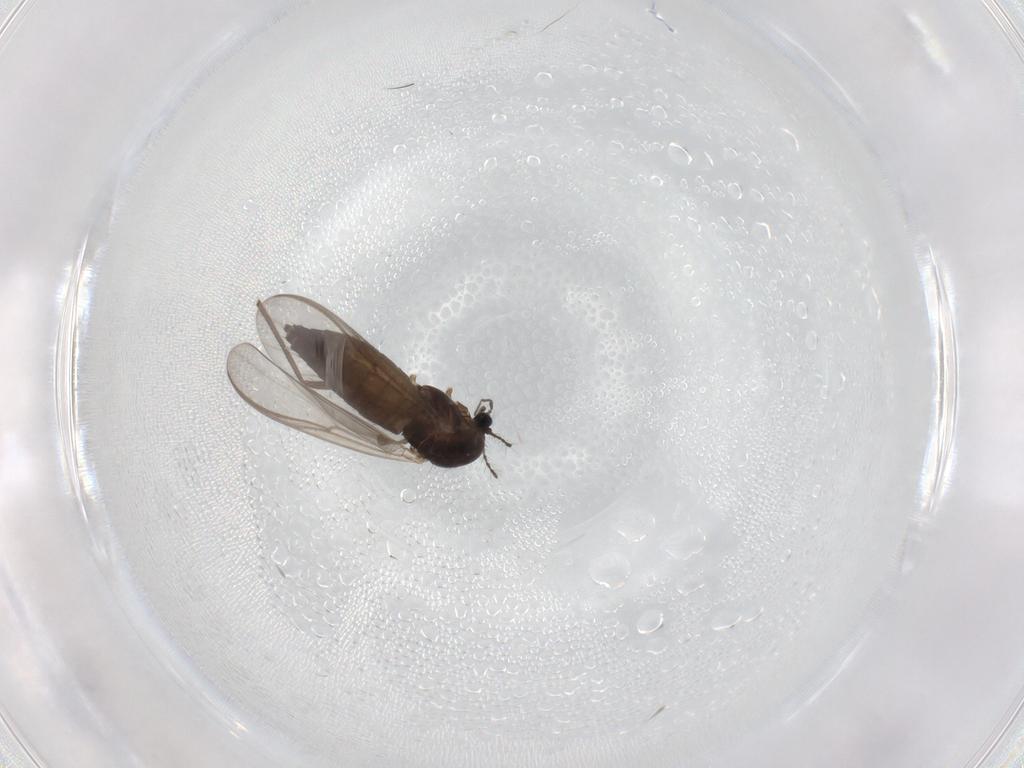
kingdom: Animalia
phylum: Arthropoda
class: Insecta
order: Diptera
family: Chironomidae
